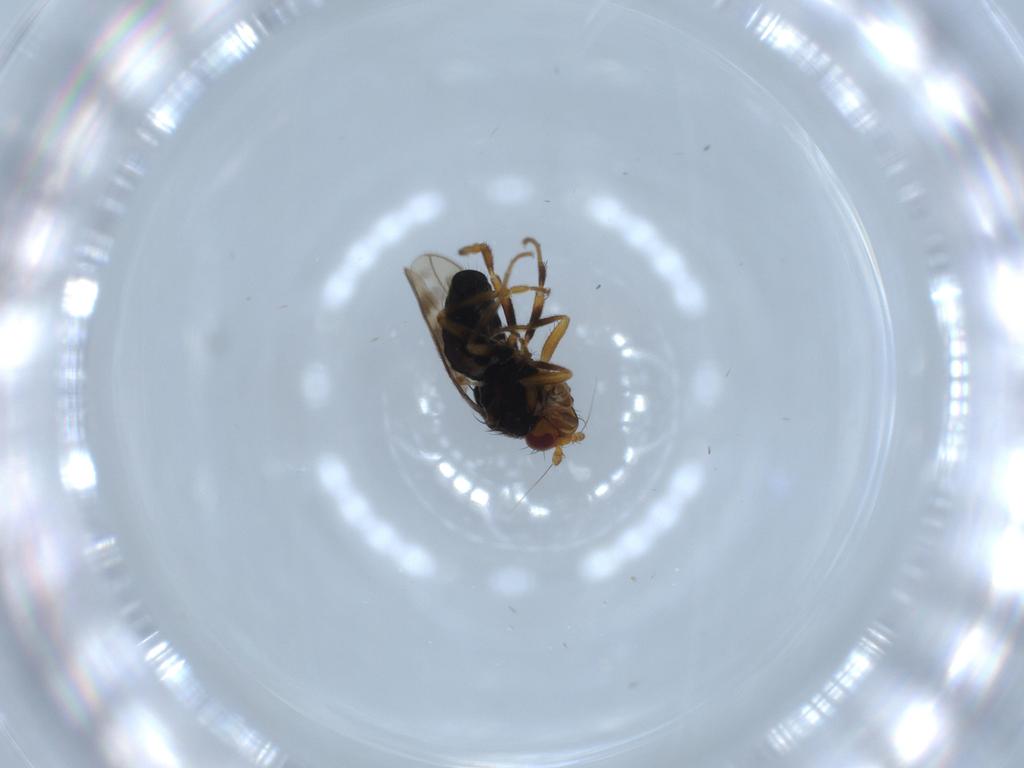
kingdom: Animalia
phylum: Arthropoda
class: Insecta
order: Diptera
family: Sphaeroceridae
